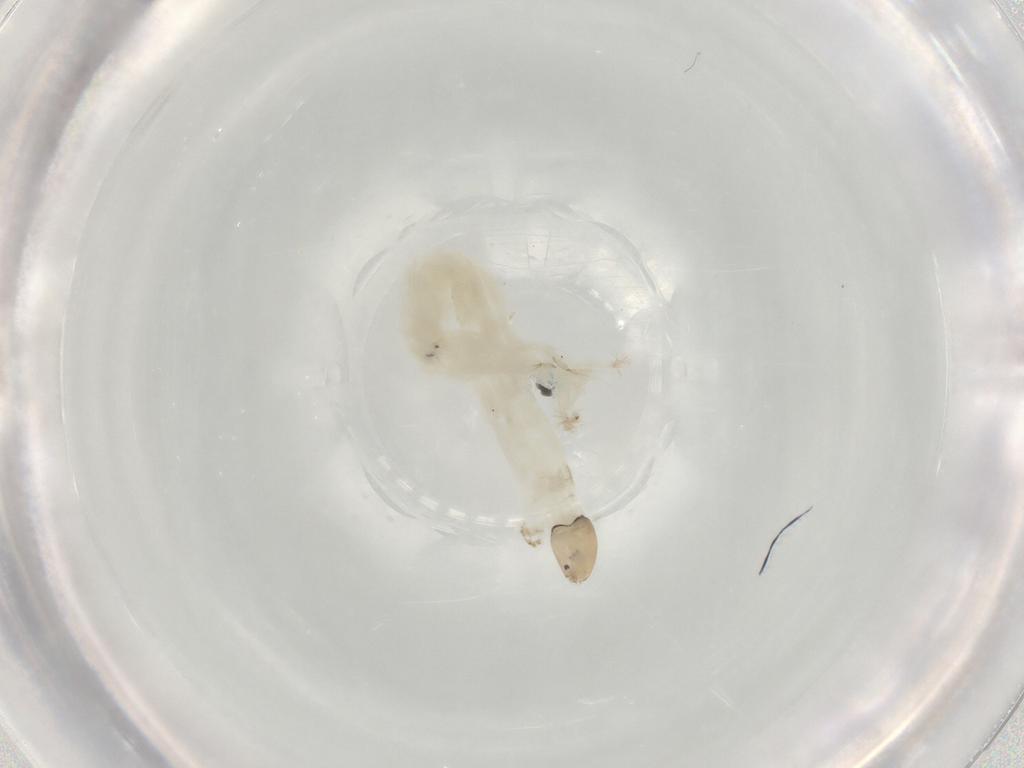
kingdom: Animalia
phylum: Arthropoda
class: Insecta
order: Diptera
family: Chironomidae
